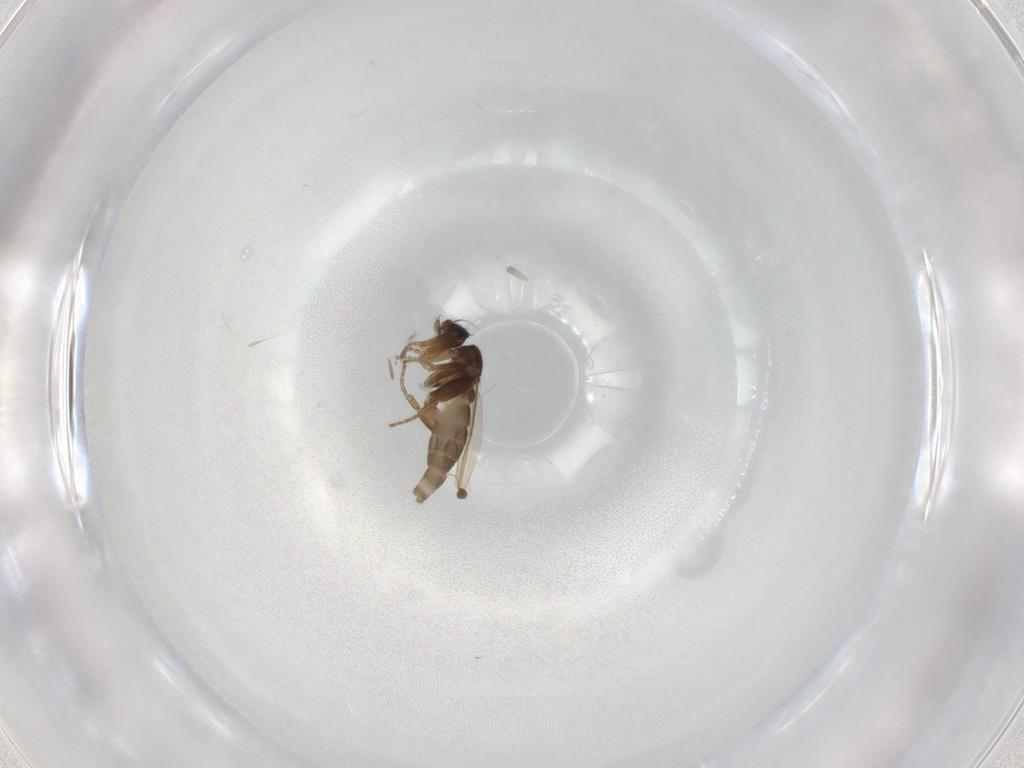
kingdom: Animalia
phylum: Arthropoda
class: Insecta
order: Diptera
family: Phoridae
